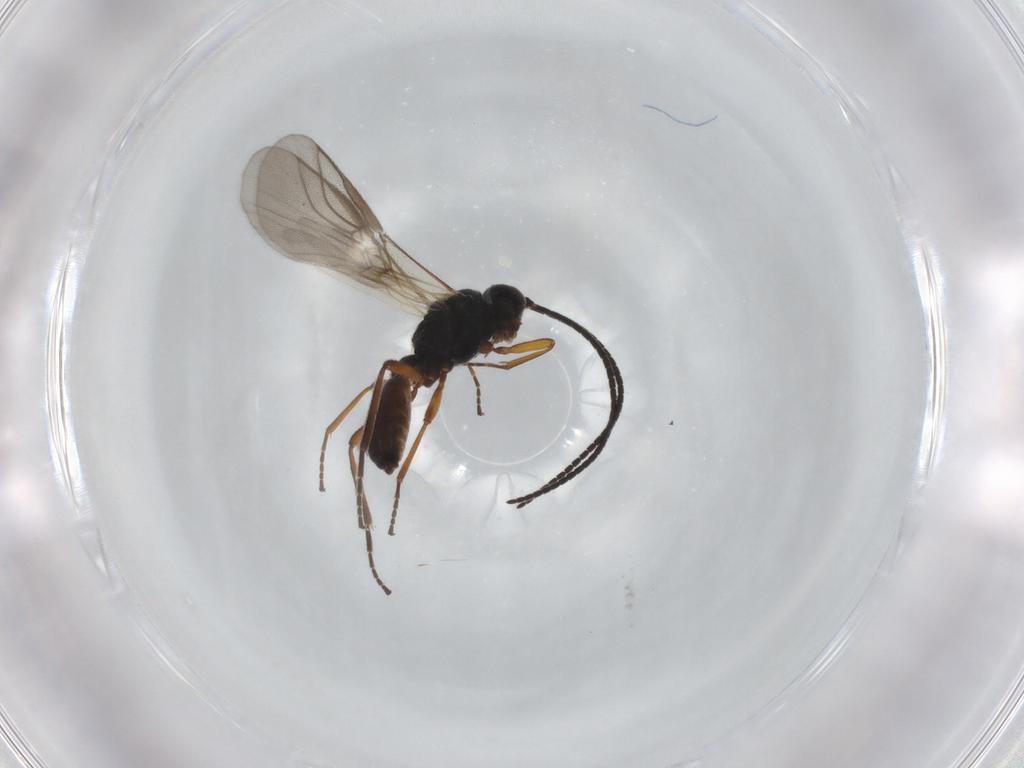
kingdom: Animalia
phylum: Arthropoda
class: Insecta
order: Hymenoptera
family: Braconidae
